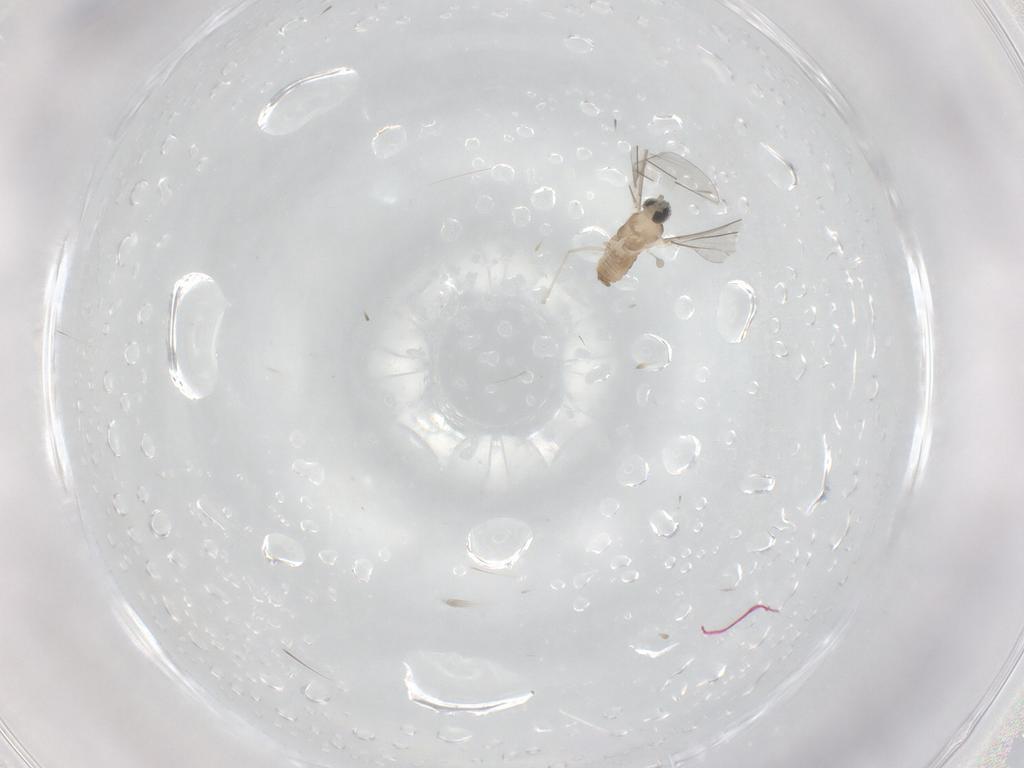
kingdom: Animalia
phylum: Arthropoda
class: Insecta
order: Diptera
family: Cecidomyiidae
